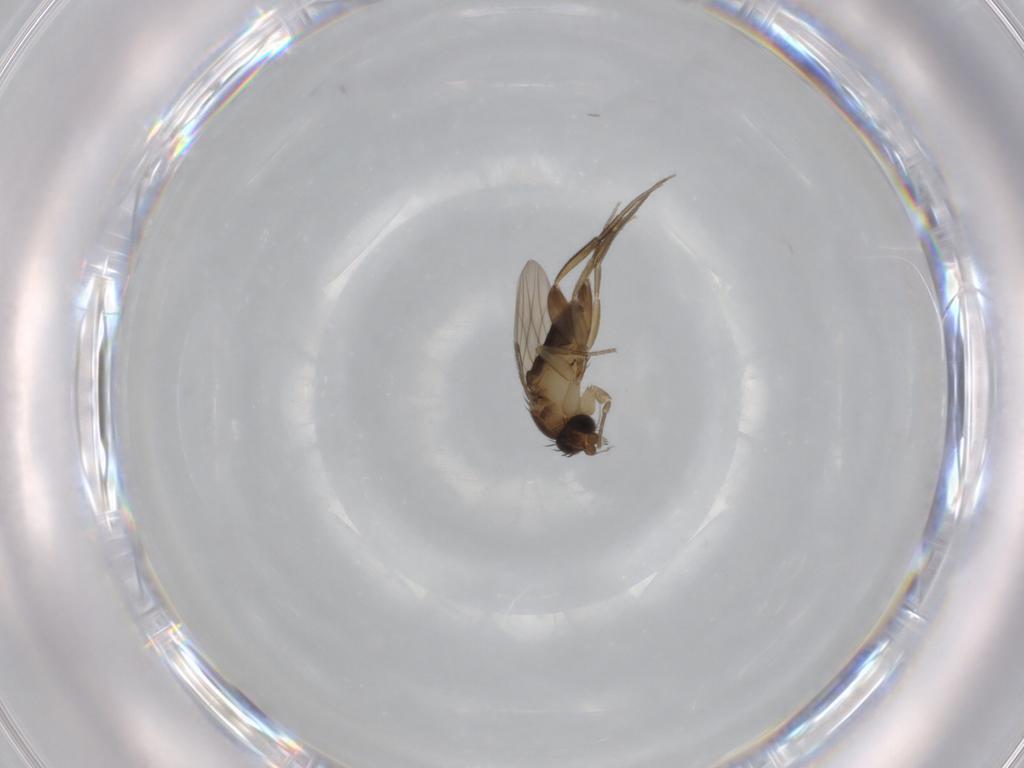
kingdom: Animalia
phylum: Arthropoda
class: Insecta
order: Diptera
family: Phoridae
